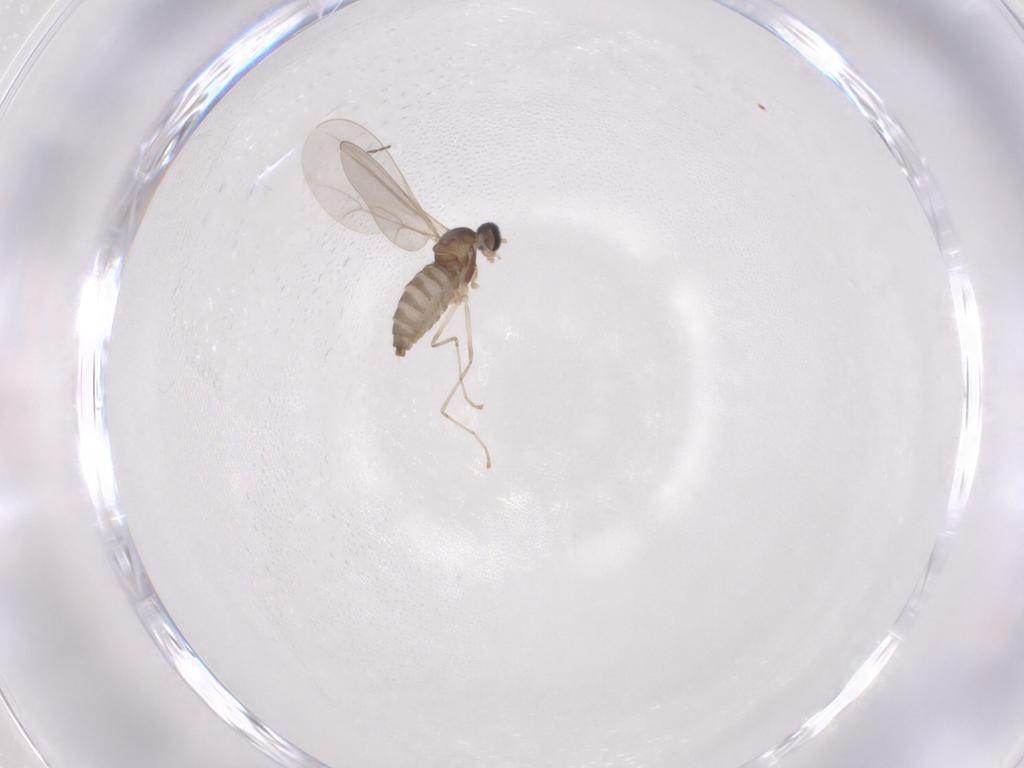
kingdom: Animalia
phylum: Arthropoda
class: Insecta
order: Diptera
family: Cecidomyiidae
